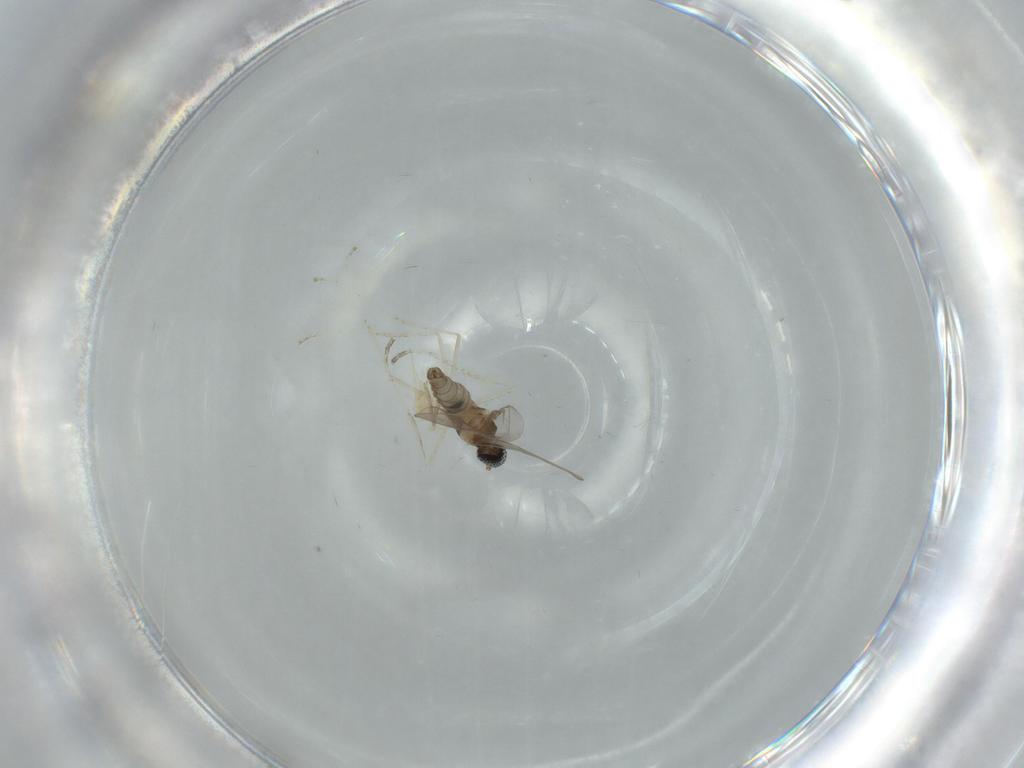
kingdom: Animalia
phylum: Arthropoda
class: Insecta
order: Diptera
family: Cecidomyiidae
